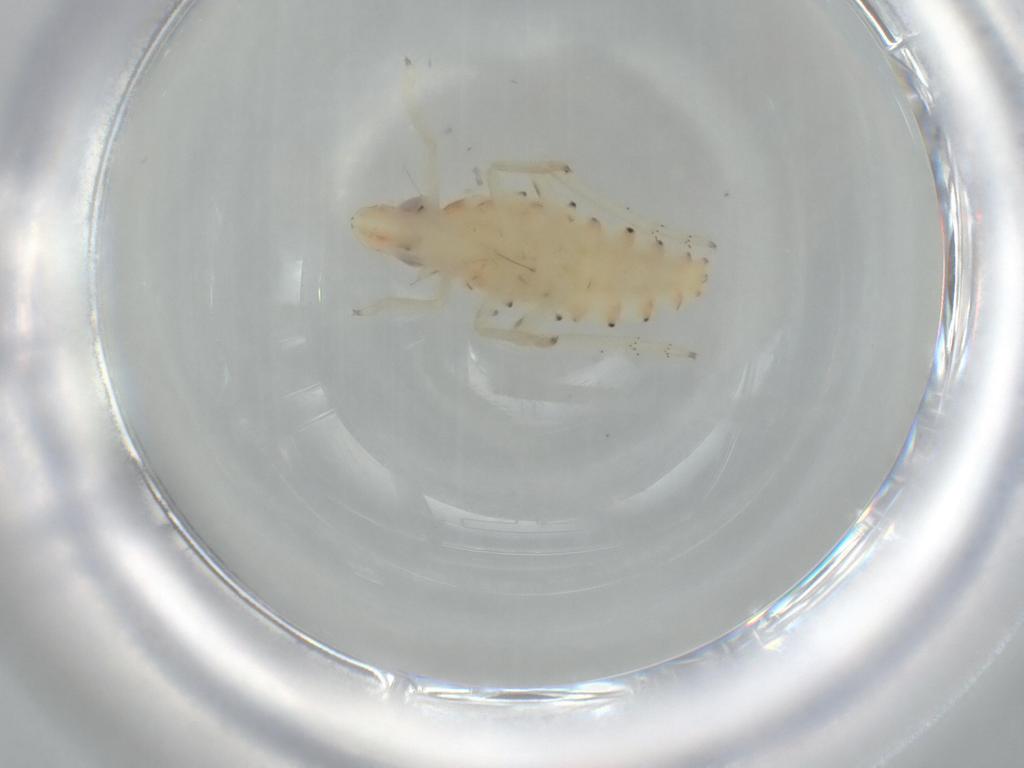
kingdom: Animalia
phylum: Arthropoda
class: Insecta
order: Hemiptera
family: Tropiduchidae
